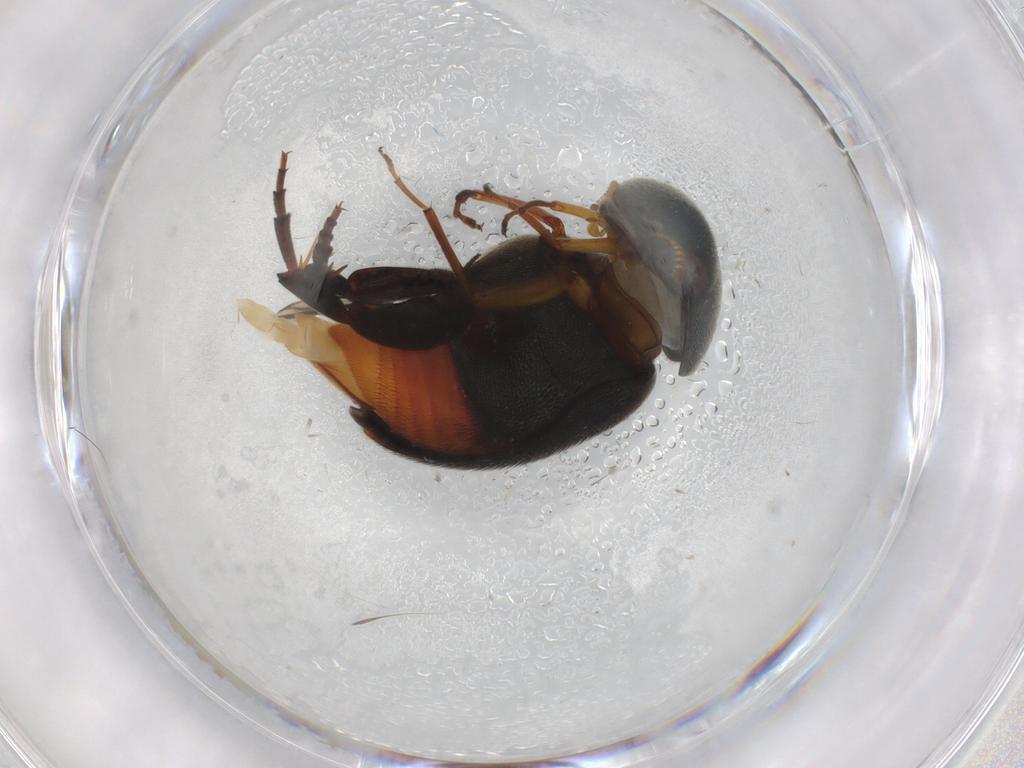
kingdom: Animalia
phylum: Arthropoda
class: Insecta
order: Coleoptera
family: Mordellidae
